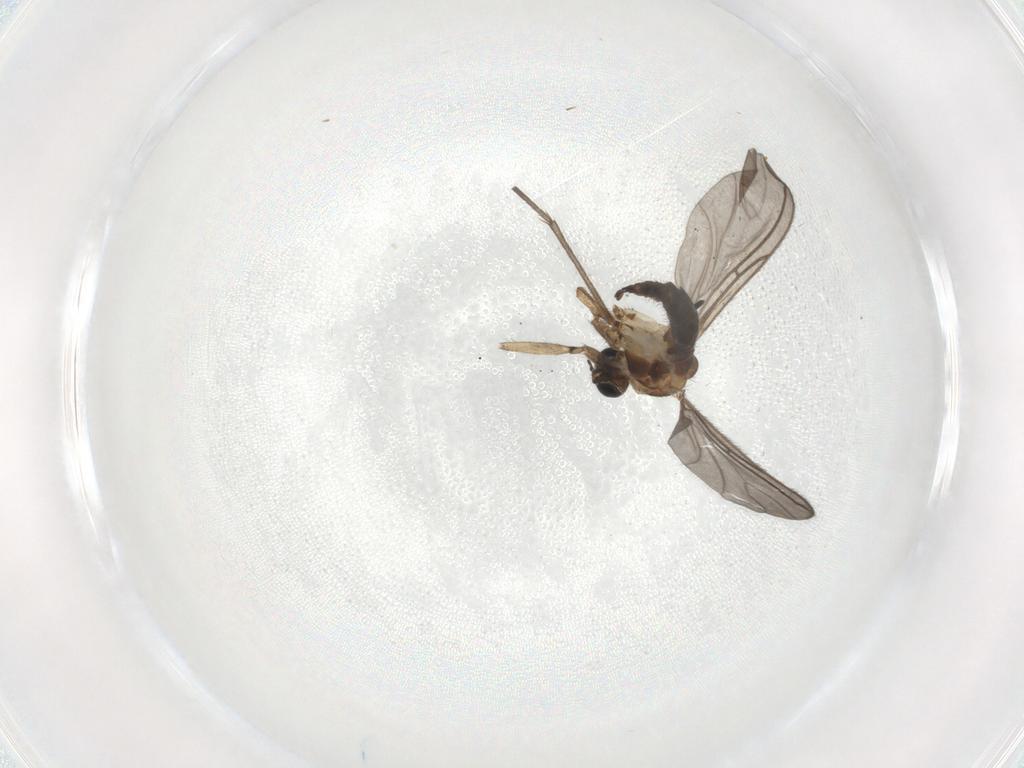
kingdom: Animalia
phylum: Arthropoda
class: Insecta
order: Diptera
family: Sciaridae
